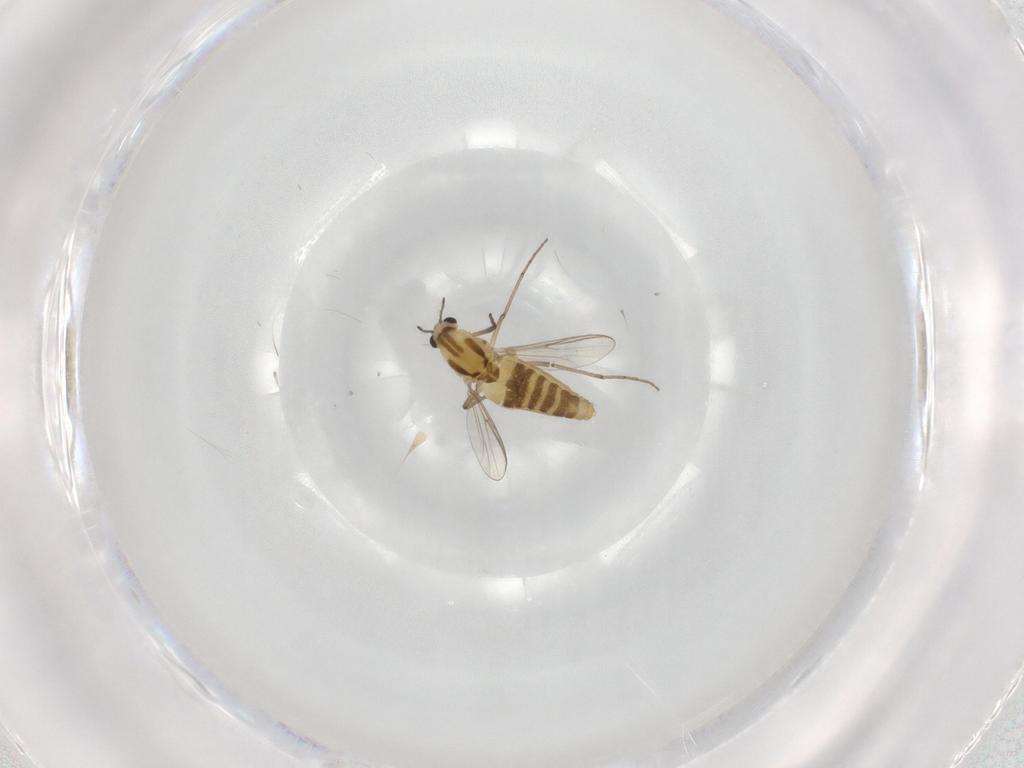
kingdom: Animalia
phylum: Arthropoda
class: Insecta
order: Diptera
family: Chironomidae
